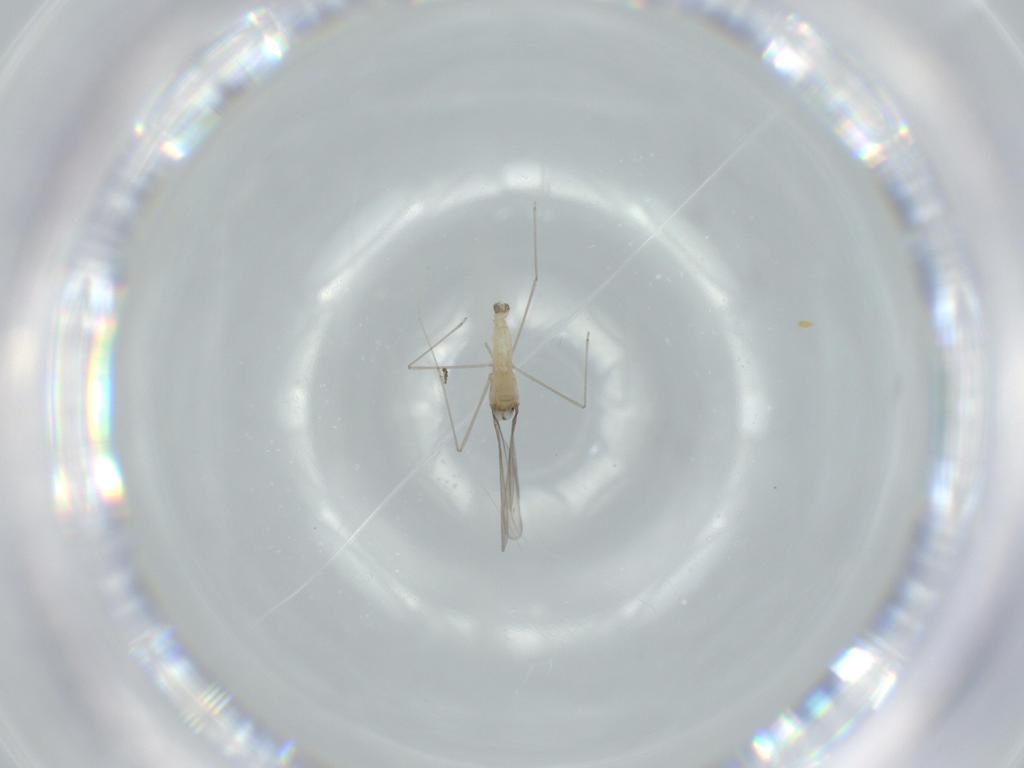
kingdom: Animalia
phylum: Arthropoda
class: Insecta
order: Diptera
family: Cecidomyiidae
